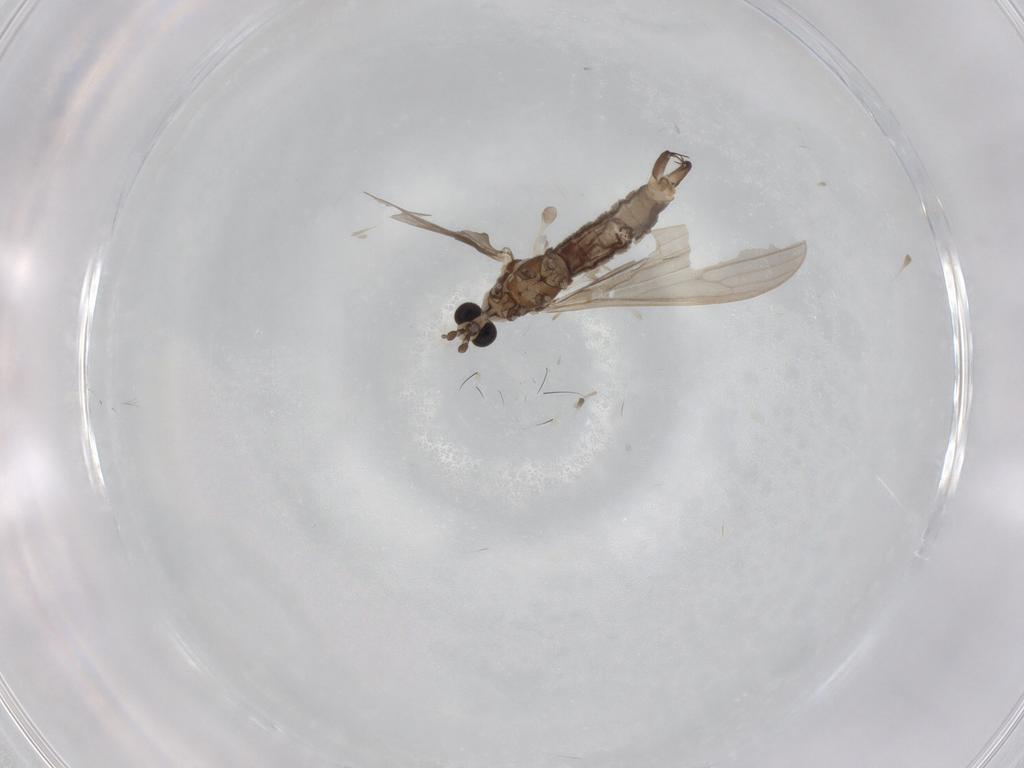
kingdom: Animalia
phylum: Arthropoda
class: Insecta
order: Diptera
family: Limoniidae
